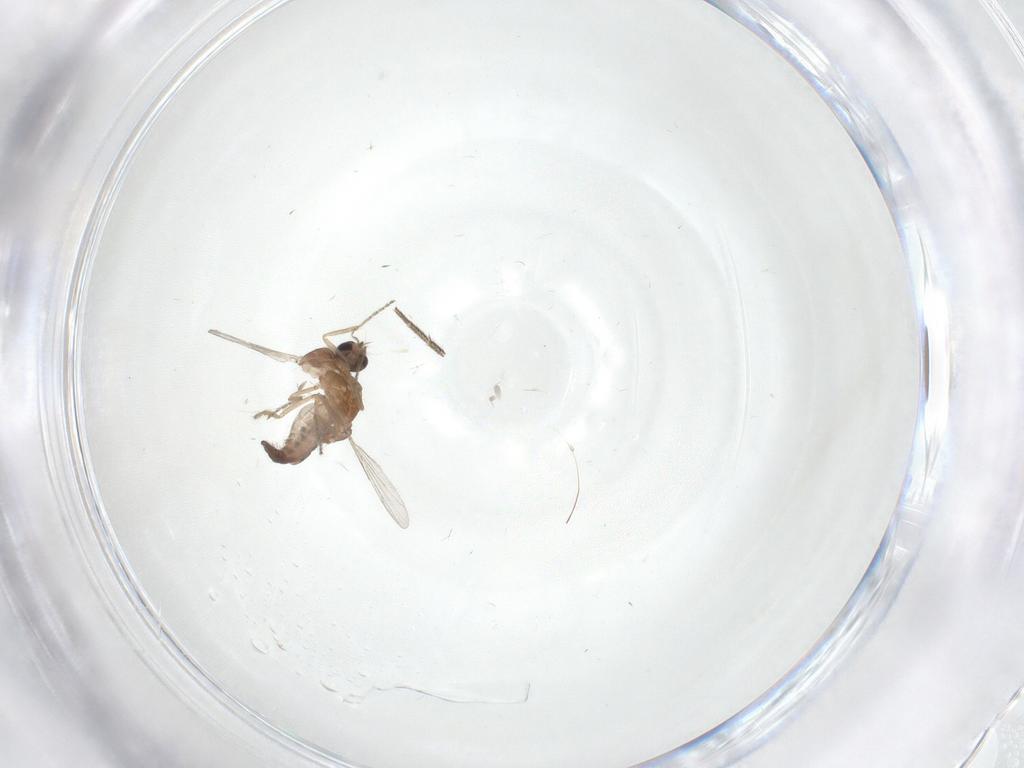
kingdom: Animalia
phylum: Arthropoda
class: Insecta
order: Diptera
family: Ceratopogonidae
